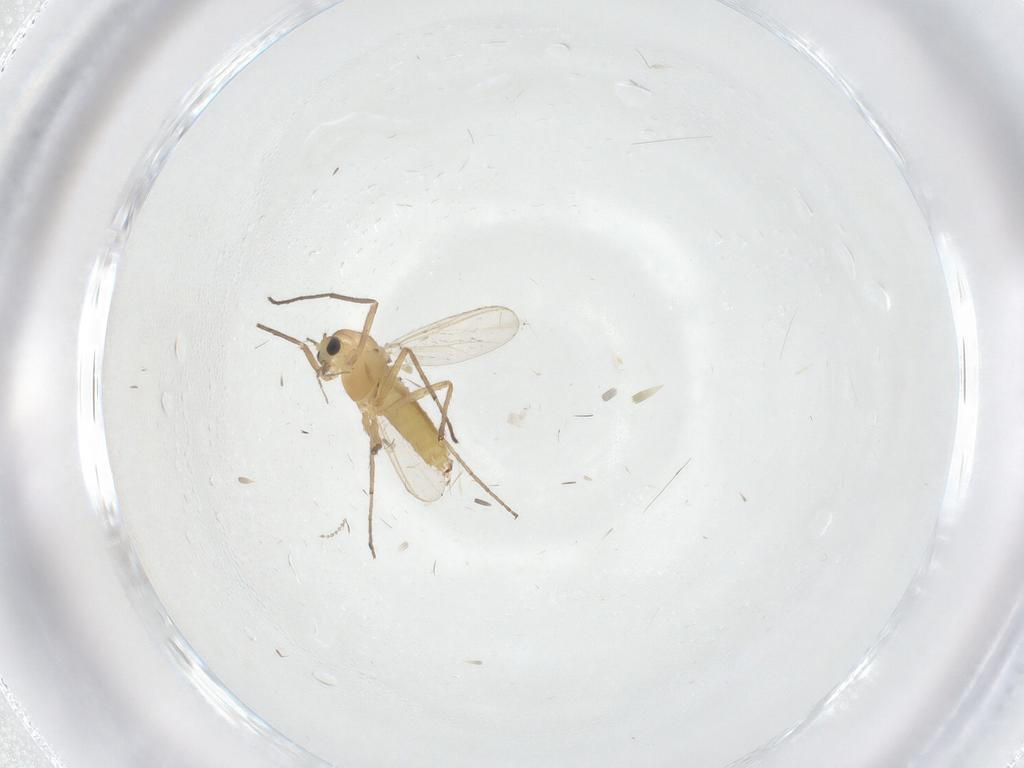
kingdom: Animalia
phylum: Arthropoda
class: Insecta
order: Diptera
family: Chironomidae
